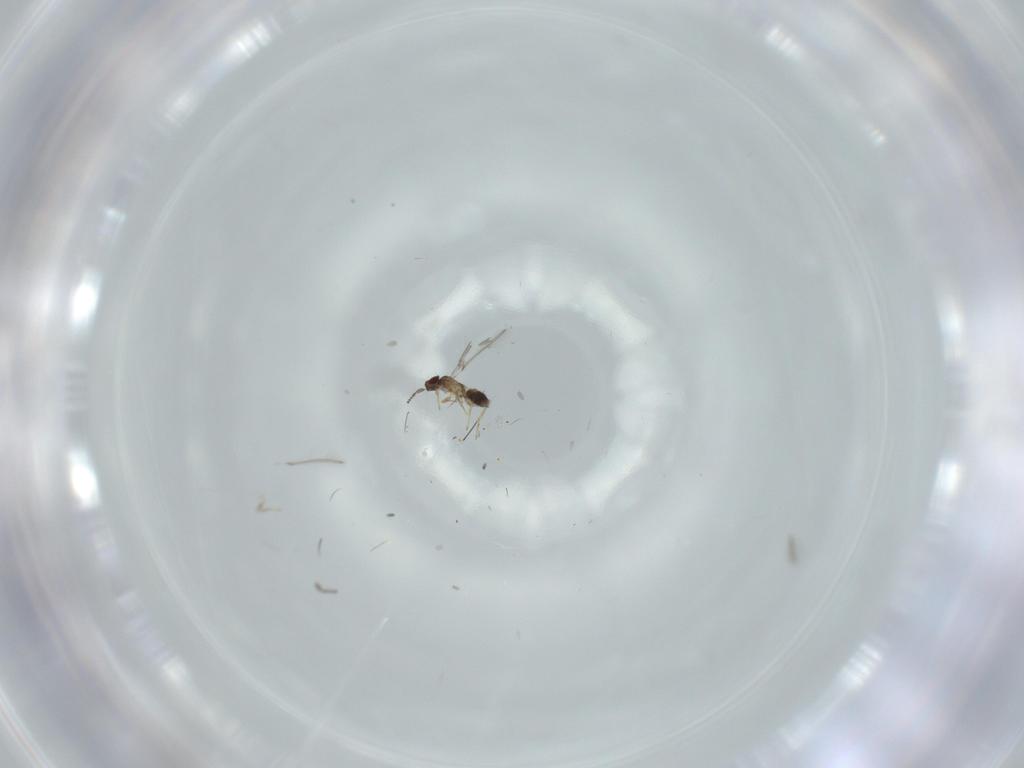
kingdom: Animalia
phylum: Arthropoda
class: Insecta
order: Hymenoptera
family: Mymaridae
